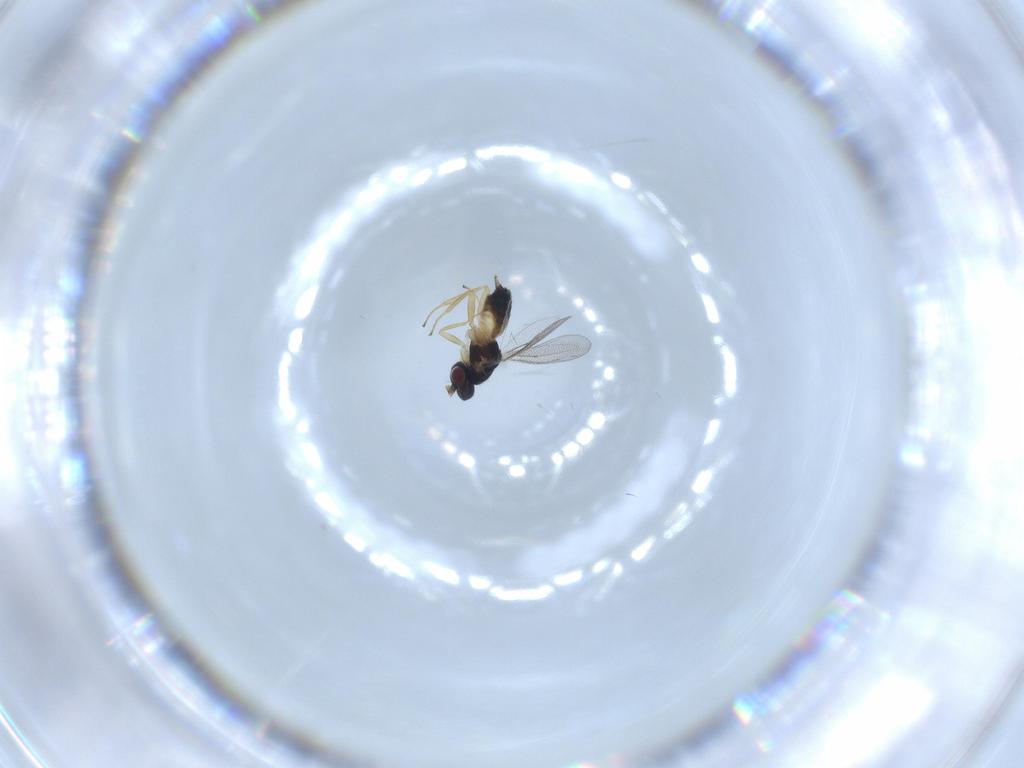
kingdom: Animalia
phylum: Arthropoda
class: Insecta
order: Hymenoptera
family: Eulophidae
